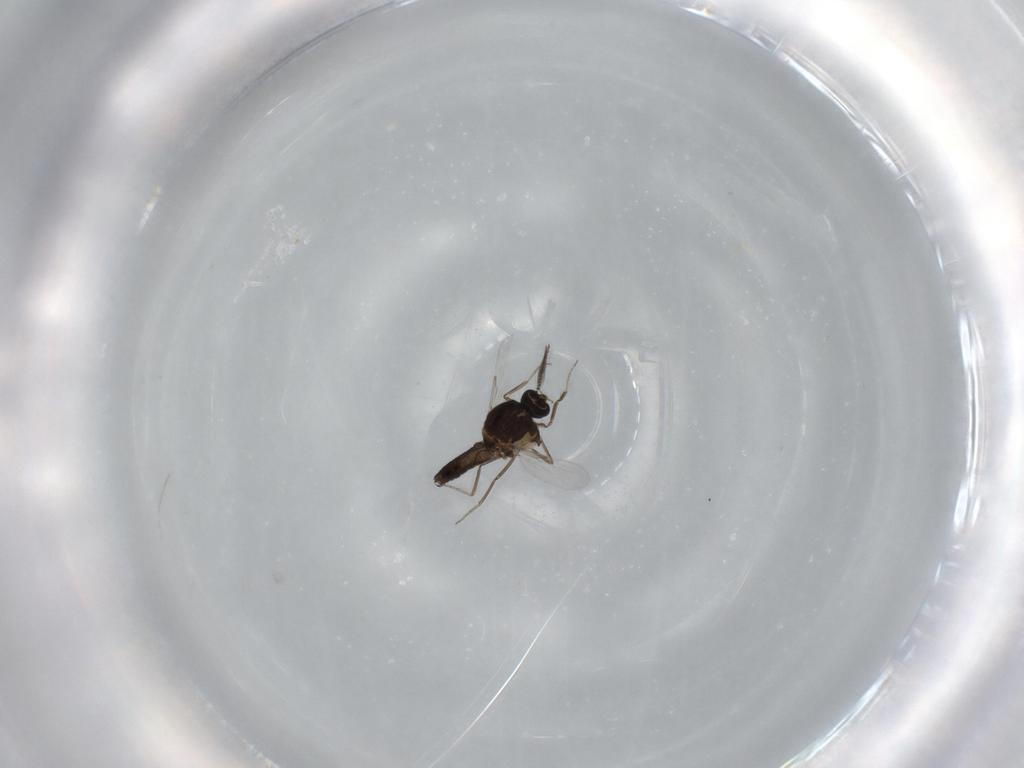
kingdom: Animalia
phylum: Arthropoda
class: Insecta
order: Diptera
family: Ceratopogonidae
